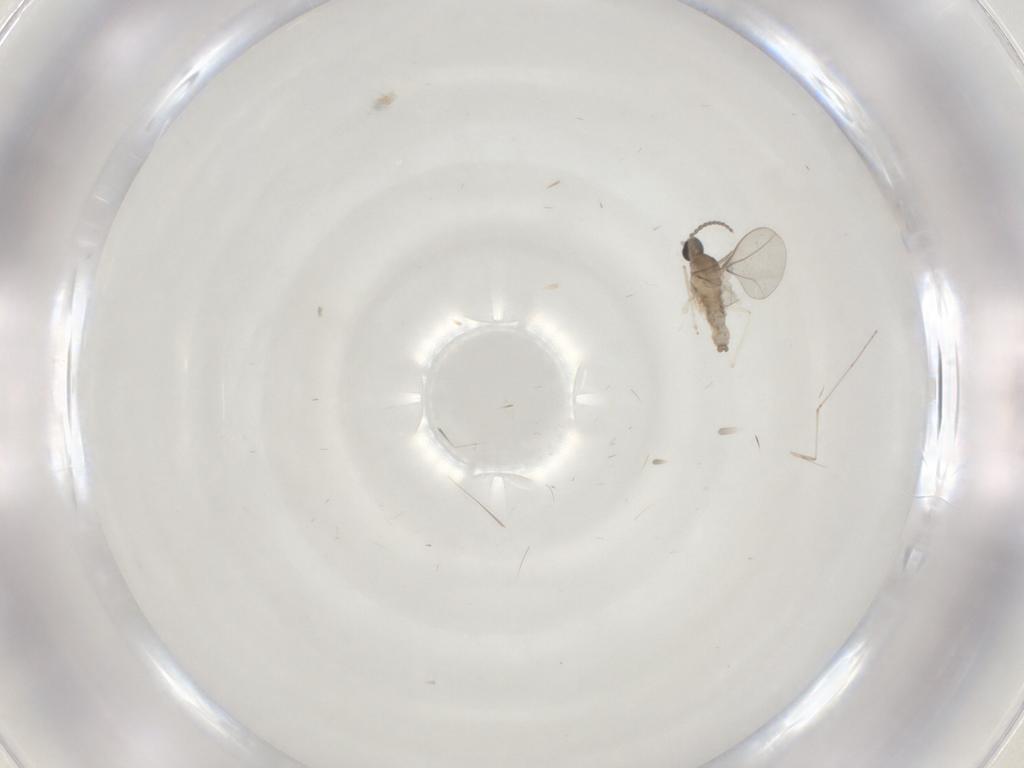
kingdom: Animalia
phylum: Arthropoda
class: Insecta
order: Diptera
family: Cecidomyiidae
